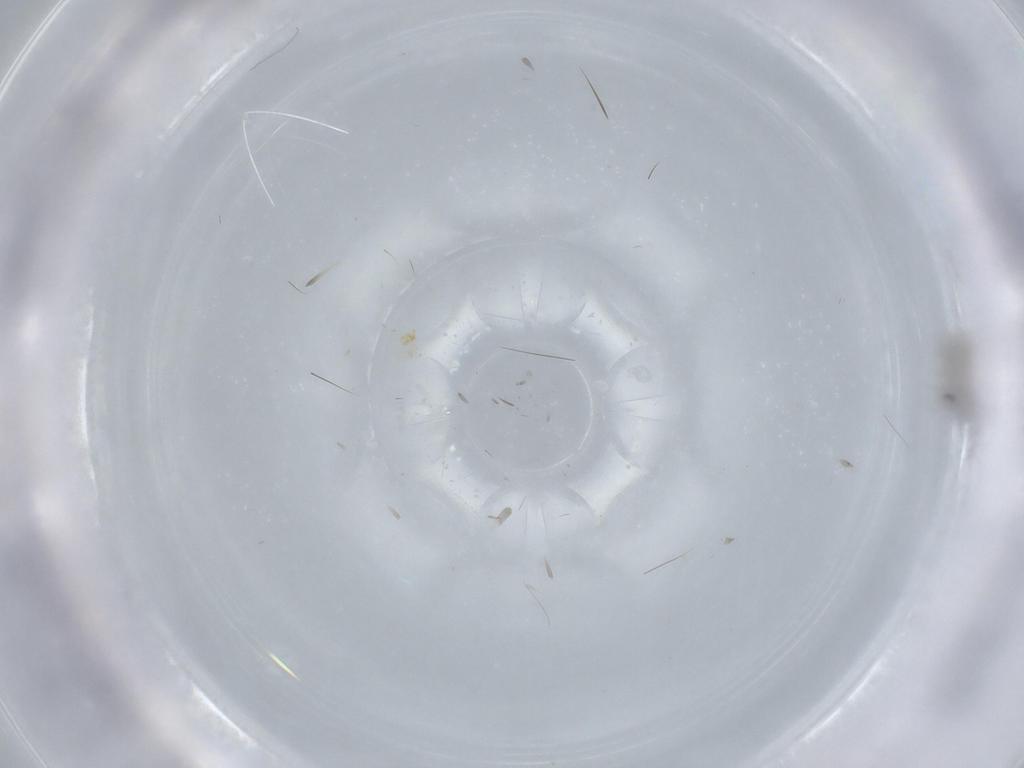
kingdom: Animalia
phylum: Arthropoda
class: Insecta
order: Diptera
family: Cecidomyiidae
